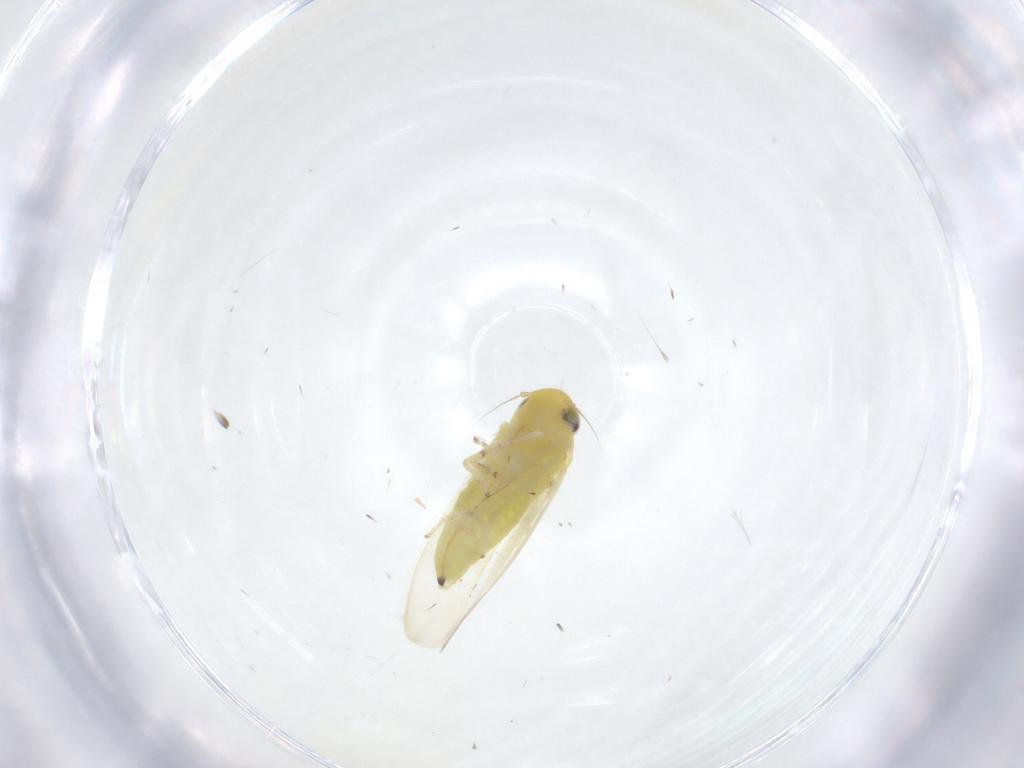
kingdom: Animalia
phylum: Arthropoda
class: Insecta
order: Hemiptera
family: Cicadellidae
